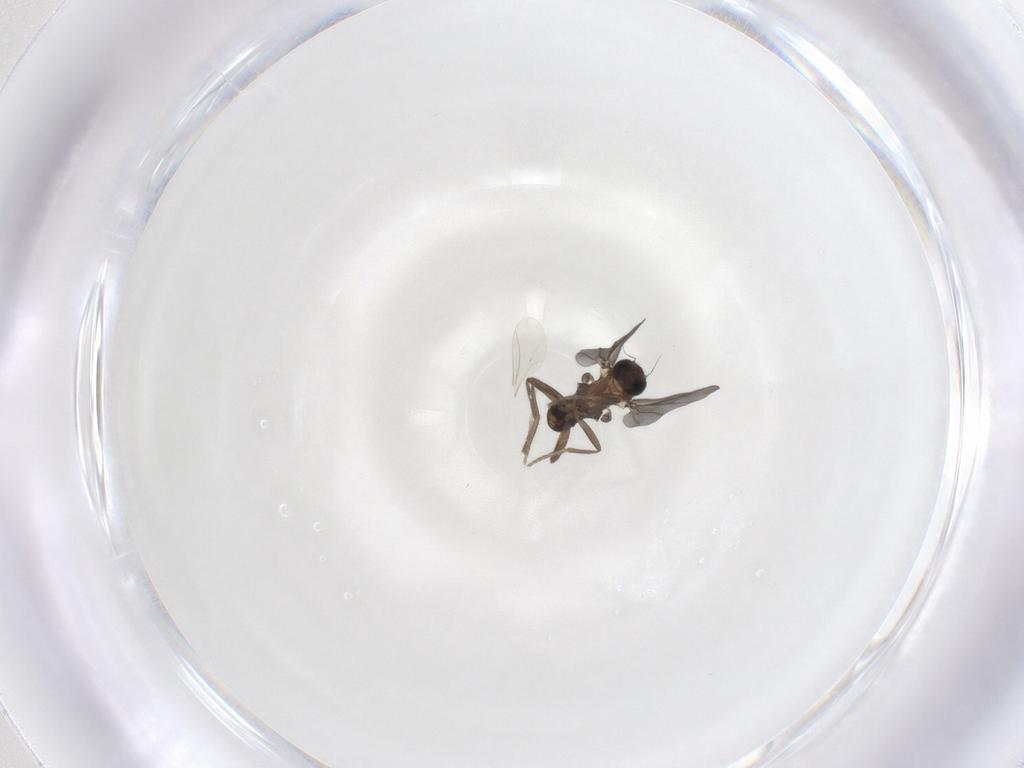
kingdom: Animalia
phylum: Arthropoda
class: Insecta
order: Diptera
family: Psychodidae
